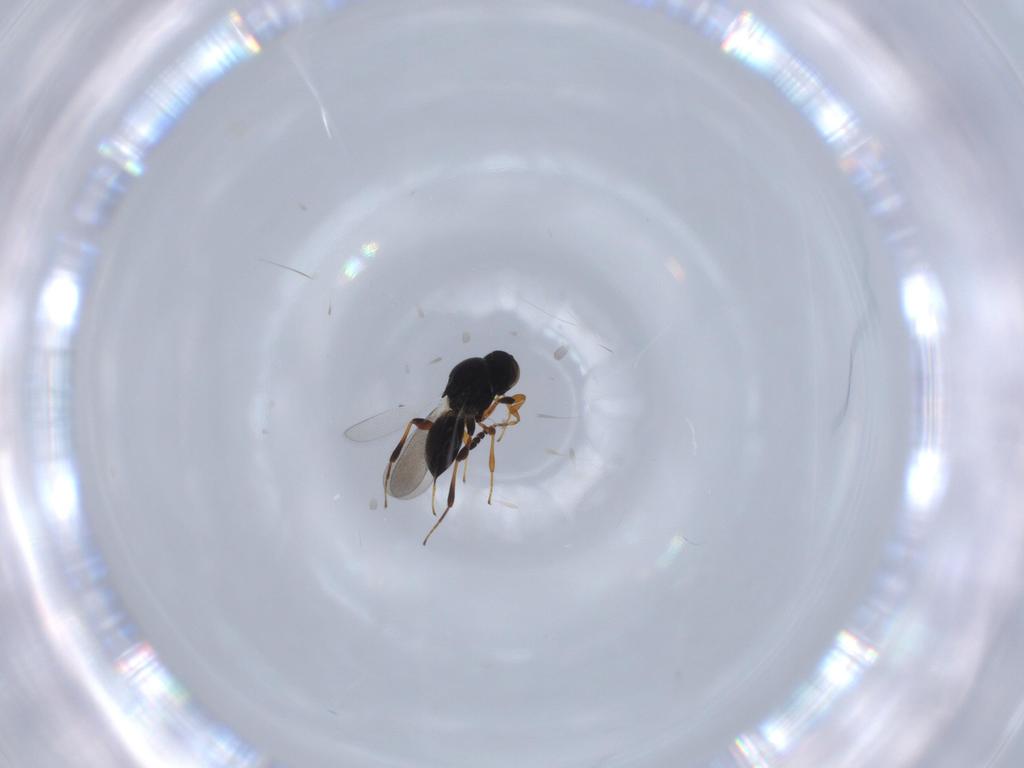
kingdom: Animalia
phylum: Arthropoda
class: Insecta
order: Hymenoptera
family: Platygastridae
